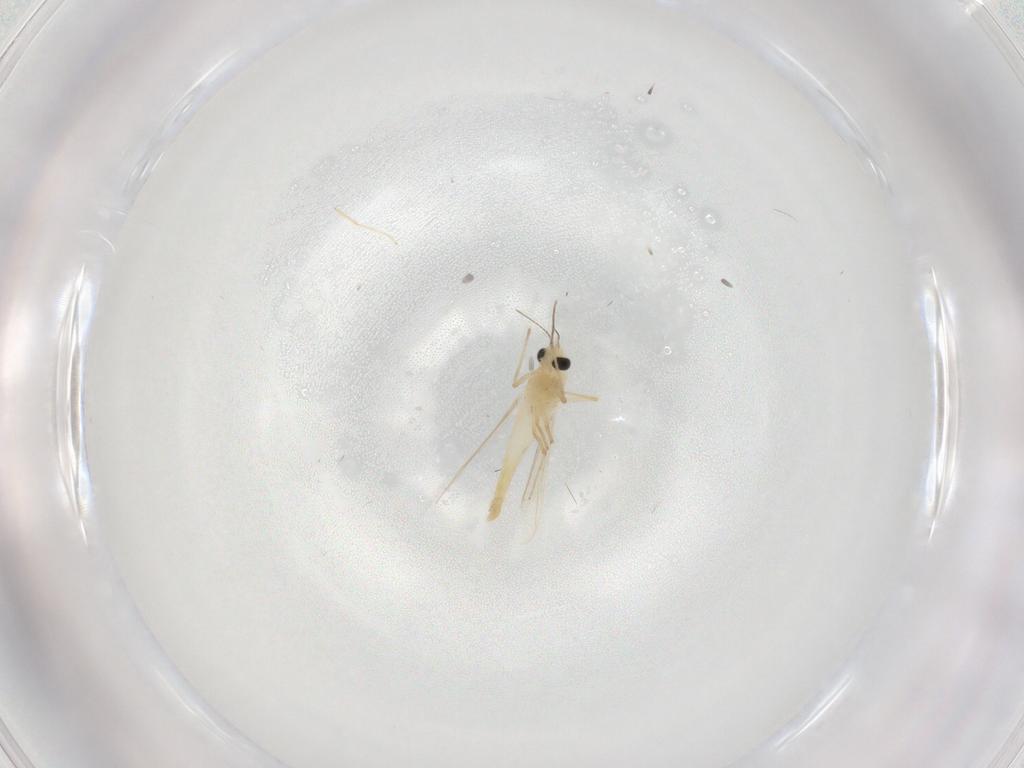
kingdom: Animalia
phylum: Arthropoda
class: Insecta
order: Diptera
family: Chironomidae
